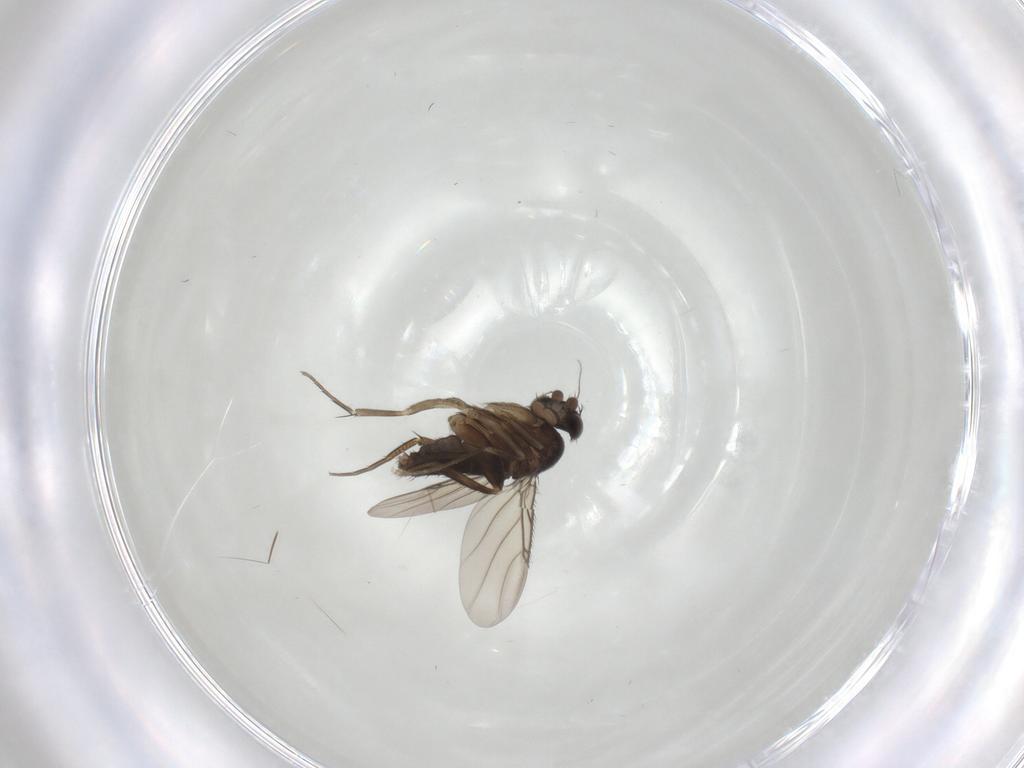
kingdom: Animalia
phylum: Arthropoda
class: Insecta
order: Diptera
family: Phoridae
